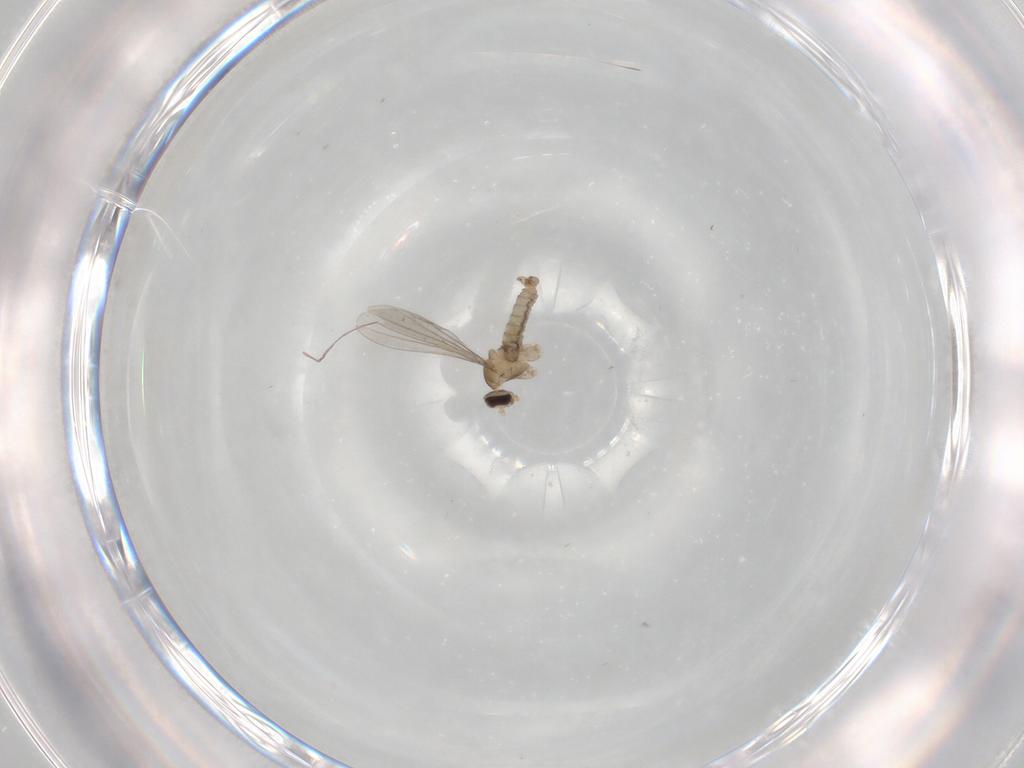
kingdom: Animalia
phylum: Arthropoda
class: Insecta
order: Diptera
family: Cecidomyiidae
